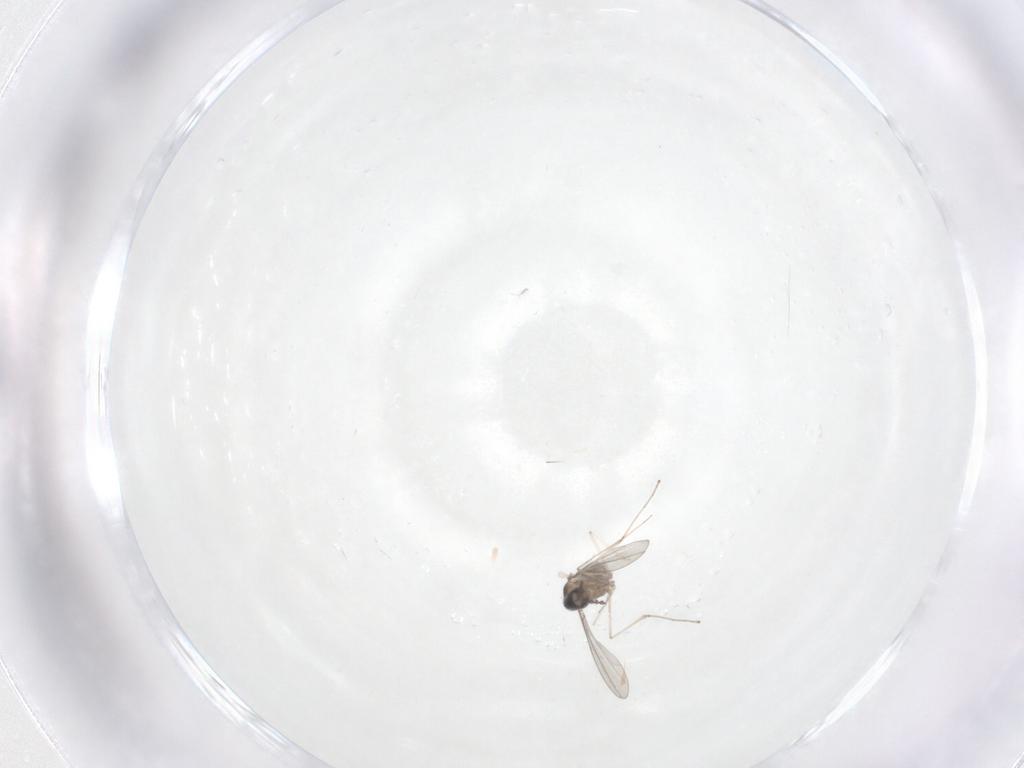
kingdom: Animalia
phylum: Arthropoda
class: Insecta
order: Diptera
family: Cecidomyiidae
